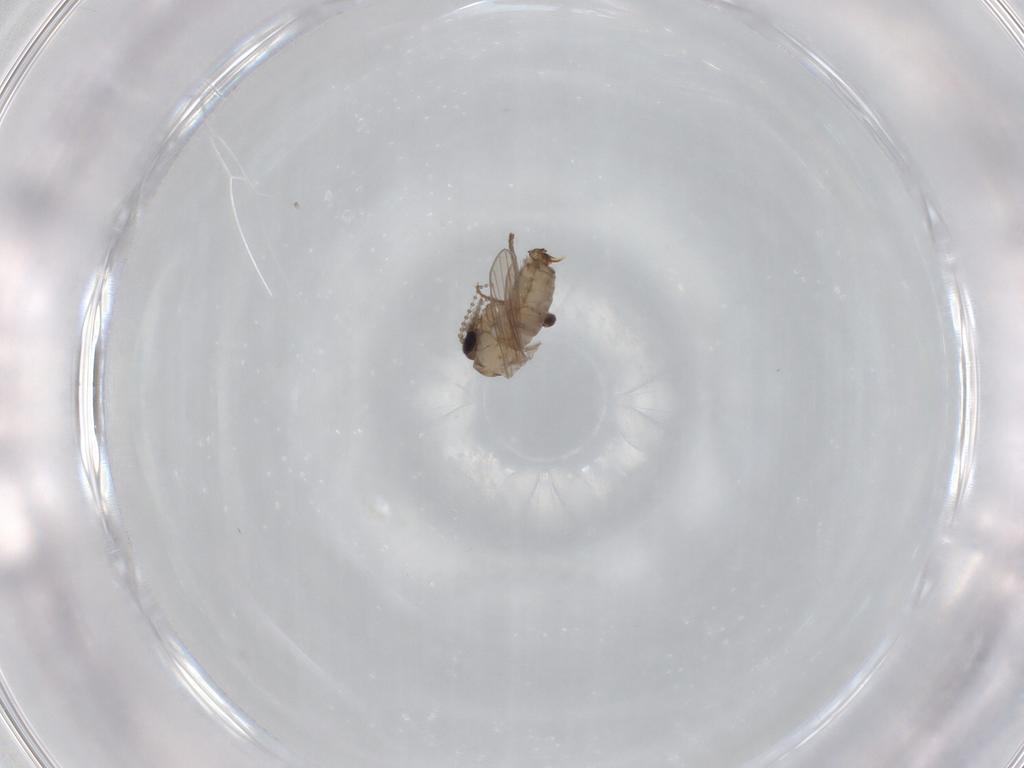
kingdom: Animalia
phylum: Arthropoda
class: Insecta
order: Diptera
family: Psychodidae
